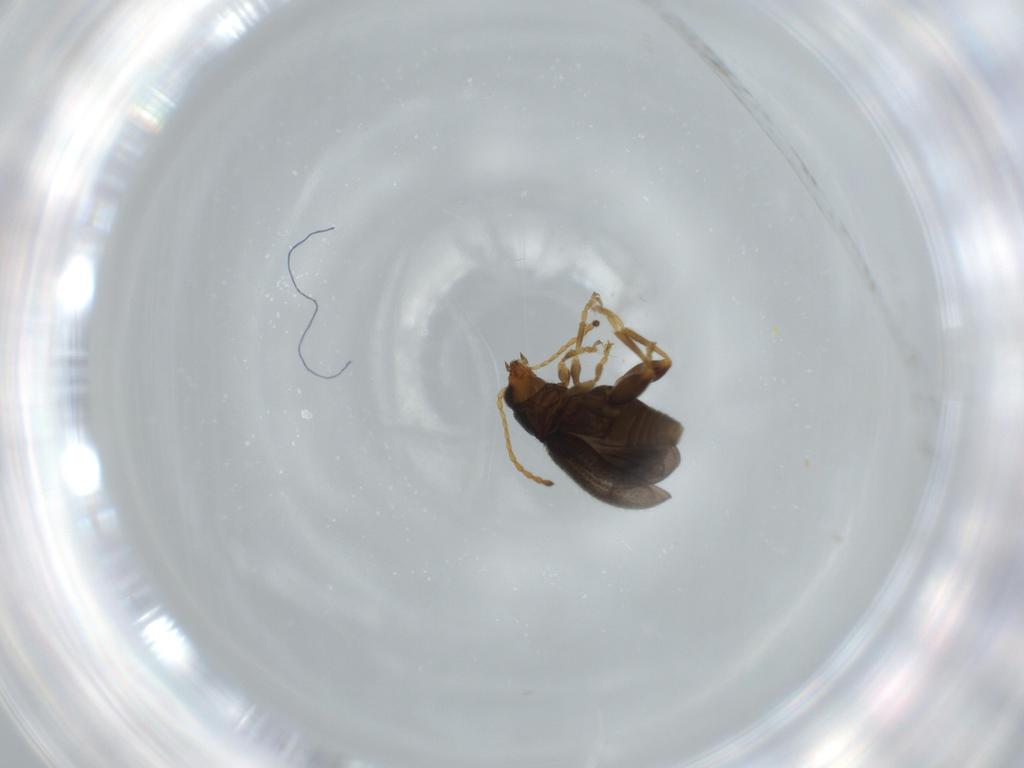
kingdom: Animalia
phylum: Arthropoda
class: Insecta
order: Coleoptera
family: Chrysomelidae
